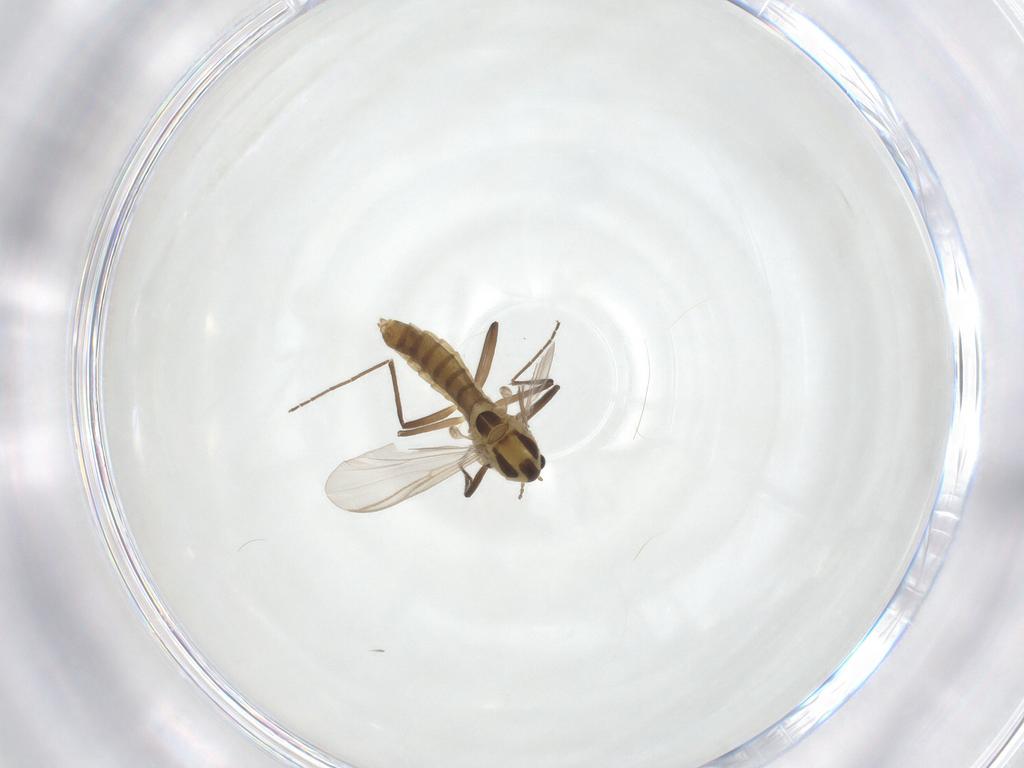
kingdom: Animalia
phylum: Arthropoda
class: Insecta
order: Diptera
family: Chironomidae
